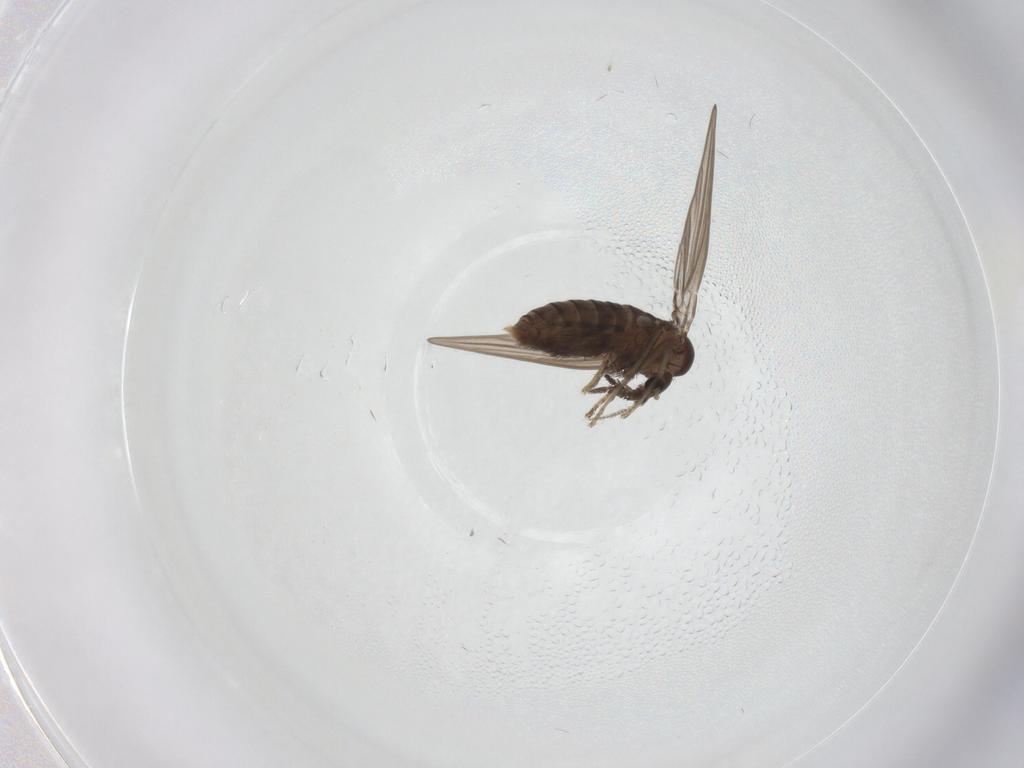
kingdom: Animalia
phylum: Arthropoda
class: Insecta
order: Diptera
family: Psychodidae
